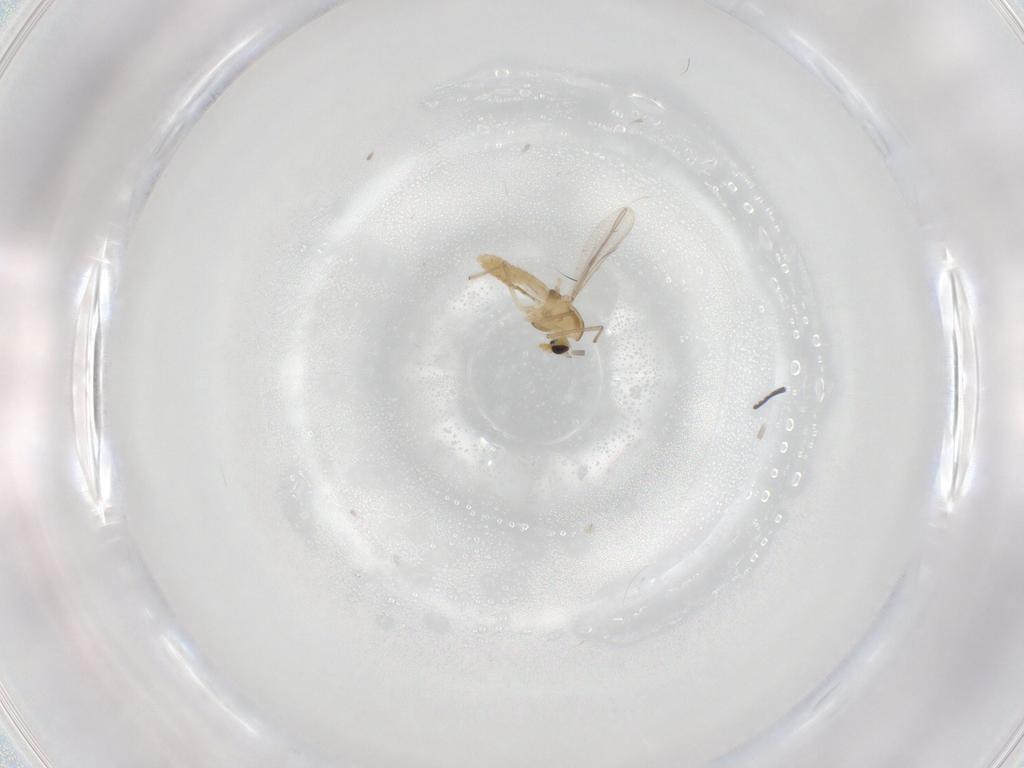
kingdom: Animalia
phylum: Arthropoda
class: Insecta
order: Diptera
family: Chironomidae
